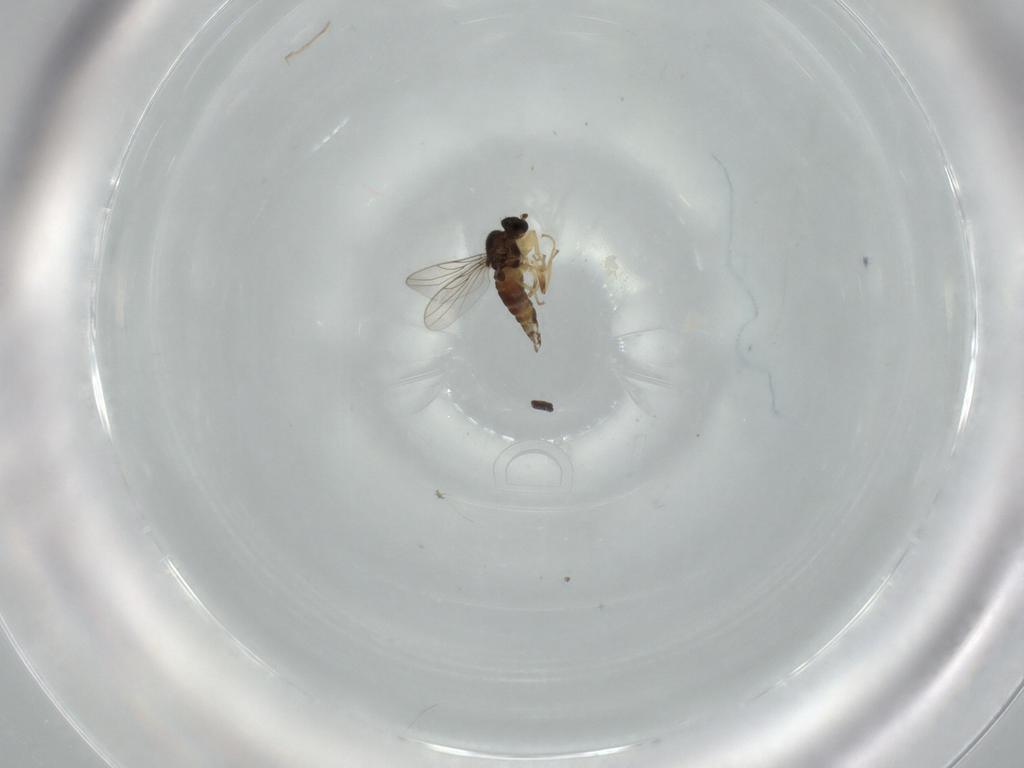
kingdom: Animalia
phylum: Arthropoda
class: Insecta
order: Diptera
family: Hybotidae
